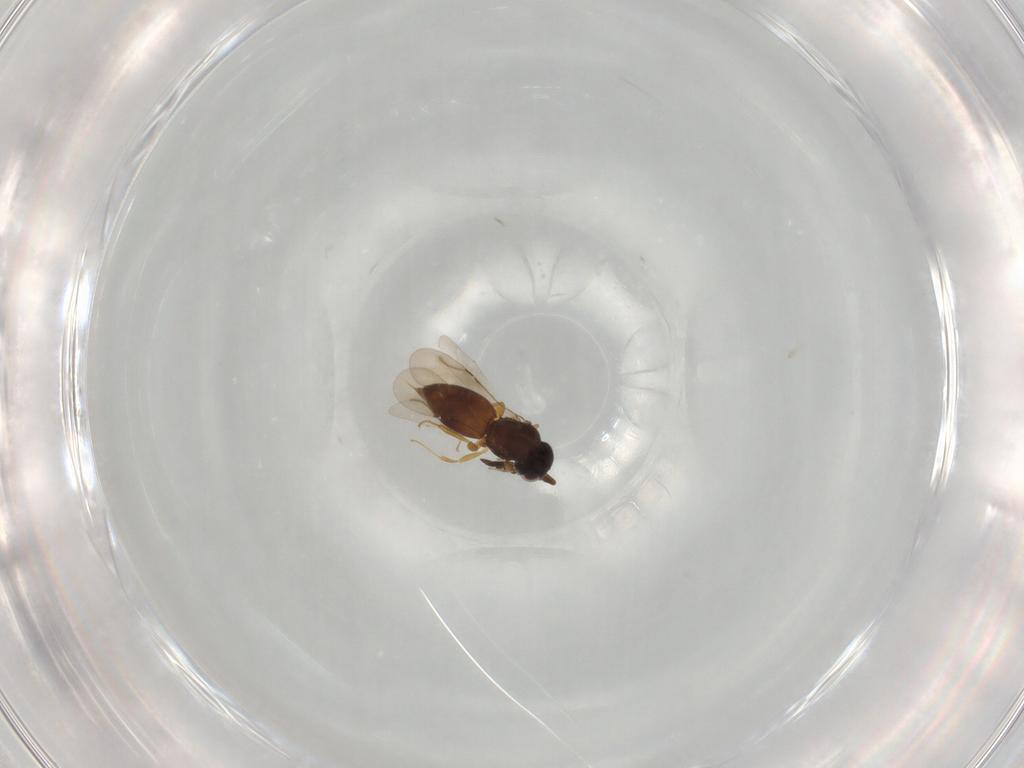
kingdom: Animalia
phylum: Arthropoda
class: Insecta
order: Hymenoptera
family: Ceraphronidae
